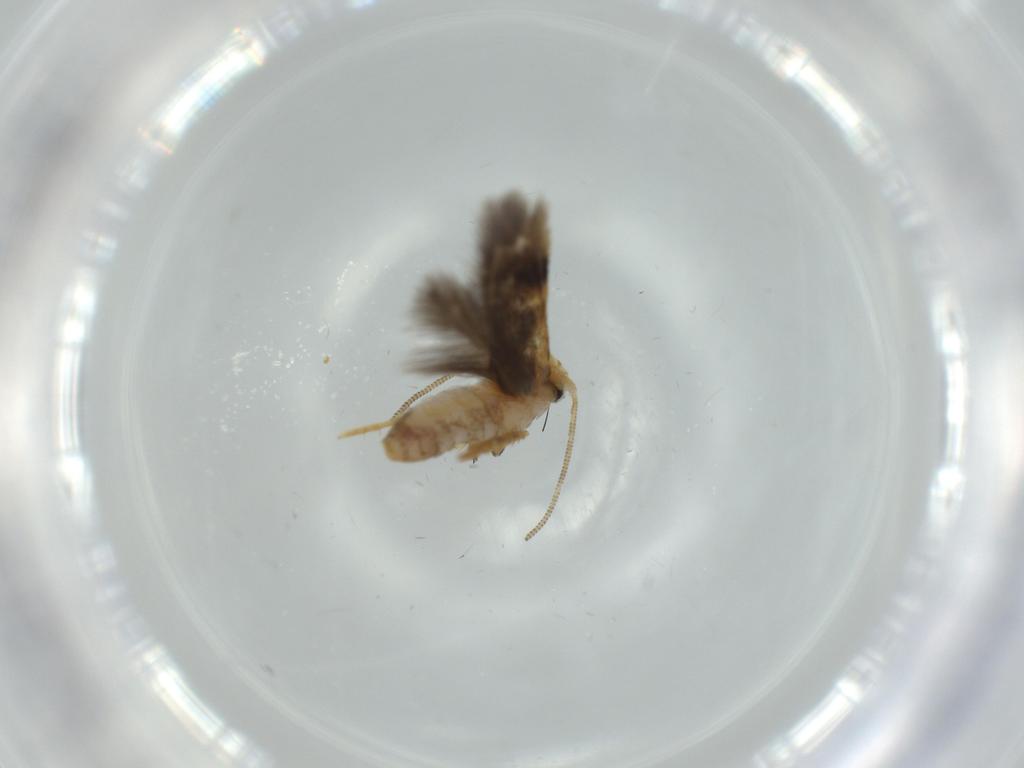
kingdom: Animalia
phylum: Arthropoda
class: Insecta
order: Lepidoptera
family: Nepticulidae
